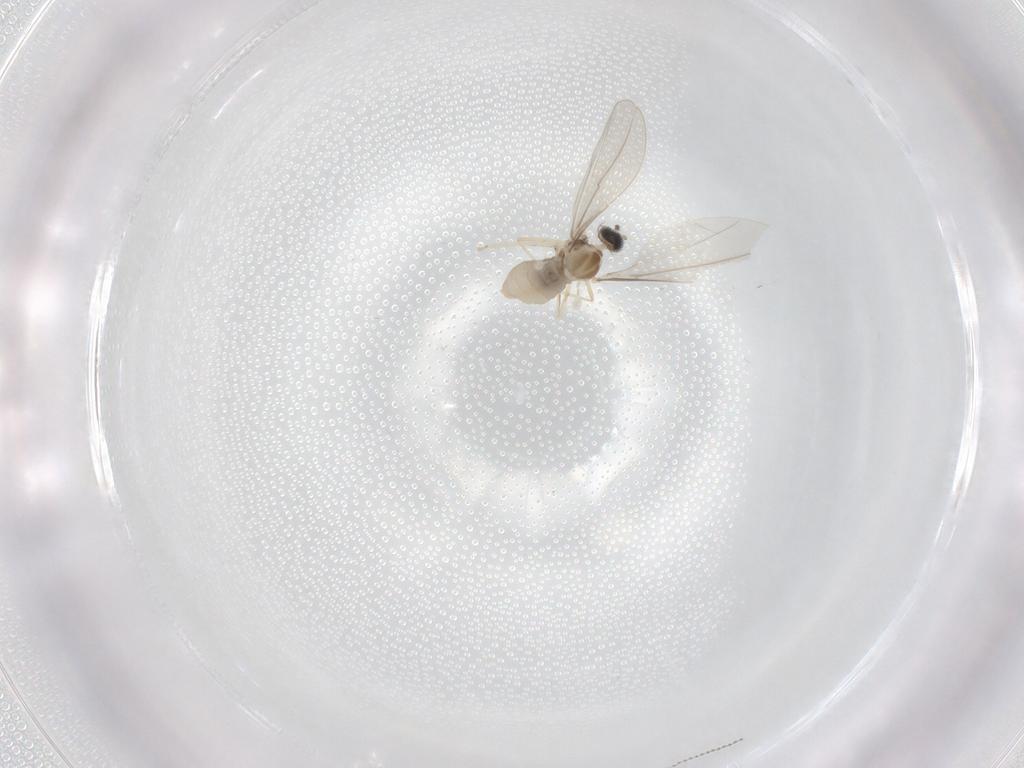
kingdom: Animalia
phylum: Arthropoda
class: Insecta
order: Diptera
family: Cecidomyiidae
